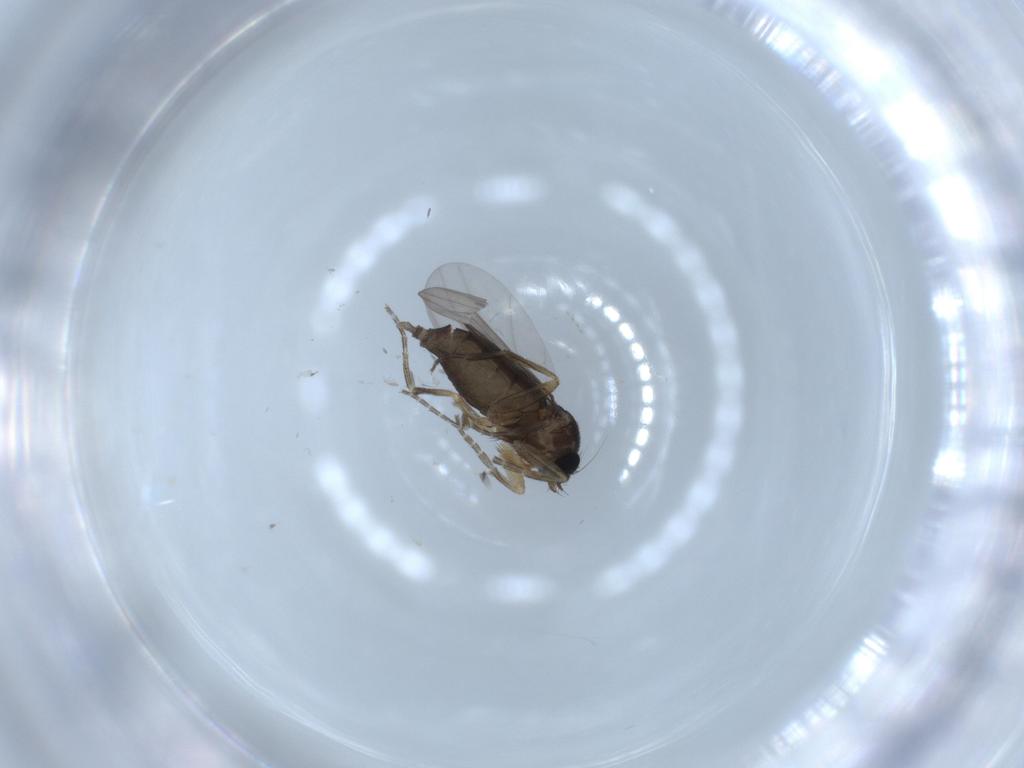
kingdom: Animalia
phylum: Arthropoda
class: Insecta
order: Diptera
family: Cecidomyiidae
